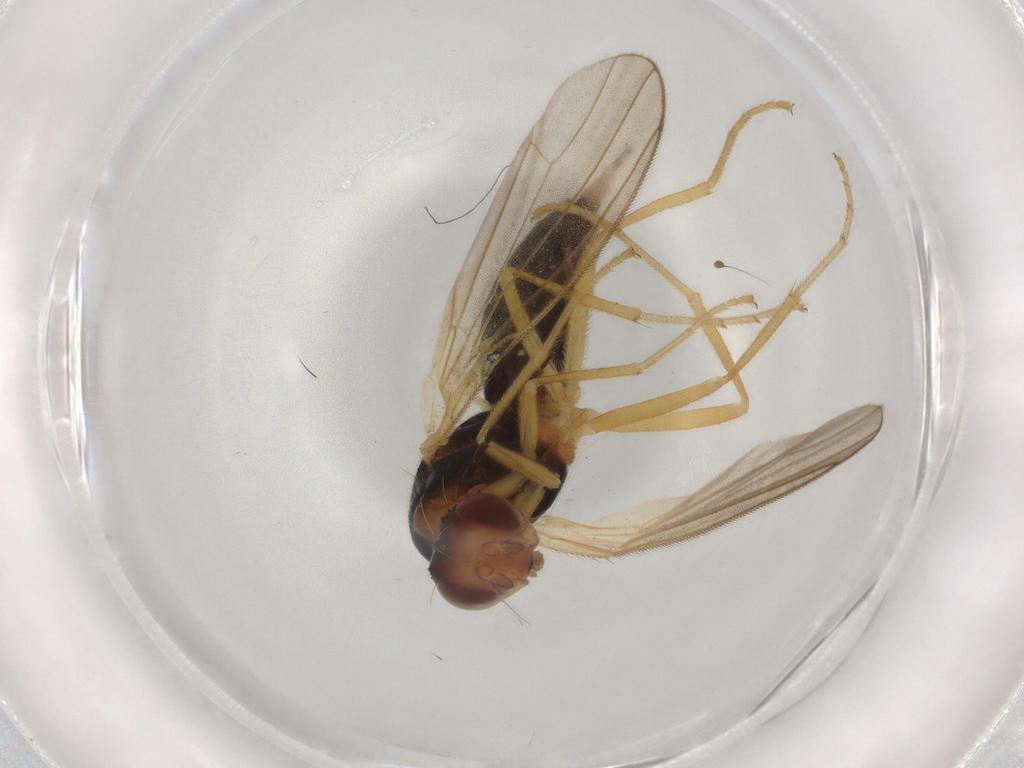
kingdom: Animalia
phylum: Arthropoda
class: Insecta
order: Diptera
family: Hybotidae
